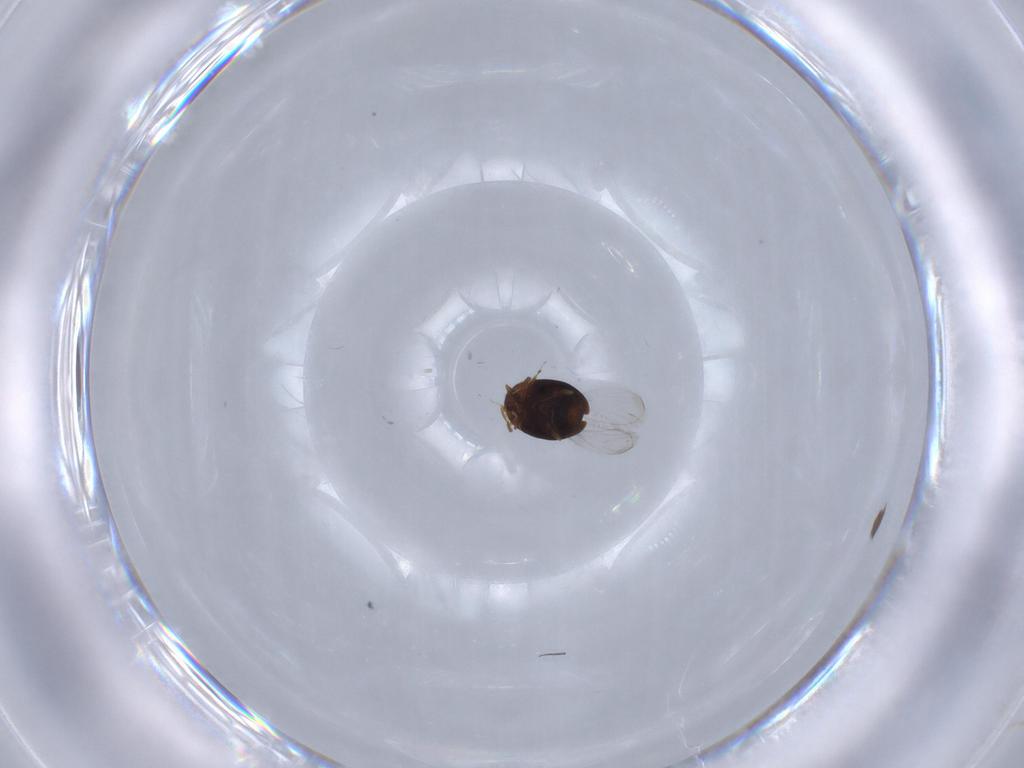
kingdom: Animalia
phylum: Arthropoda
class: Insecta
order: Coleoptera
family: Corylophidae
